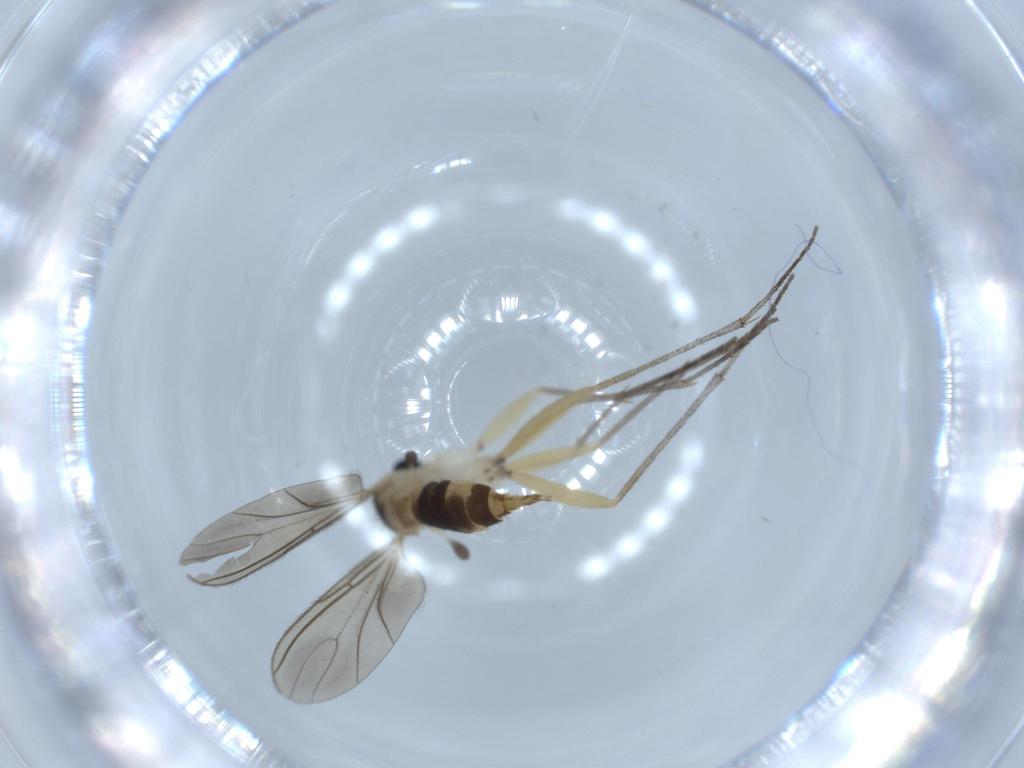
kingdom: Animalia
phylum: Arthropoda
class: Insecta
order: Diptera
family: Sciaridae
